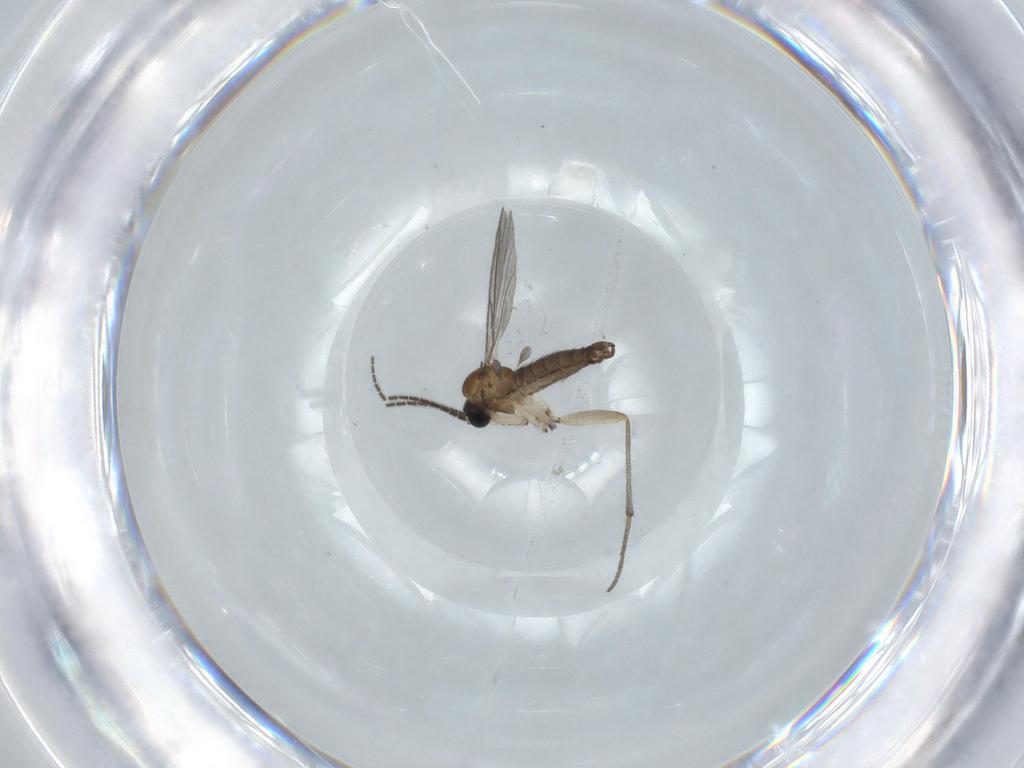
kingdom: Animalia
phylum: Arthropoda
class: Insecta
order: Diptera
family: Sciaridae
